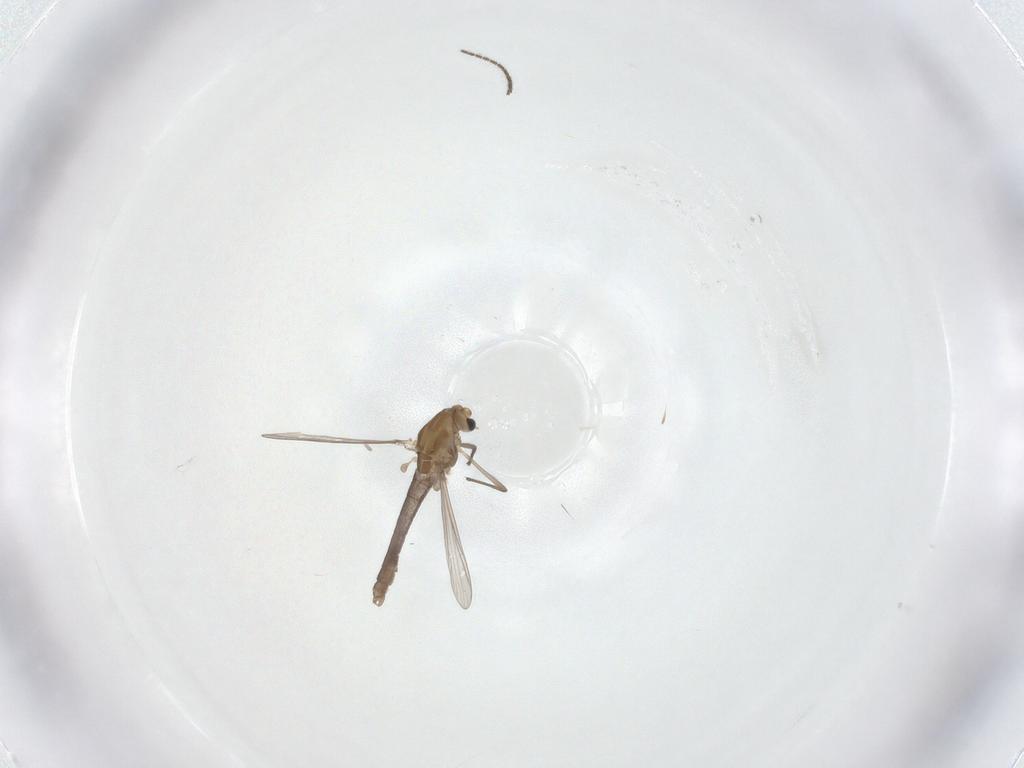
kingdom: Animalia
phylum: Arthropoda
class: Insecta
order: Diptera
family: Chironomidae
